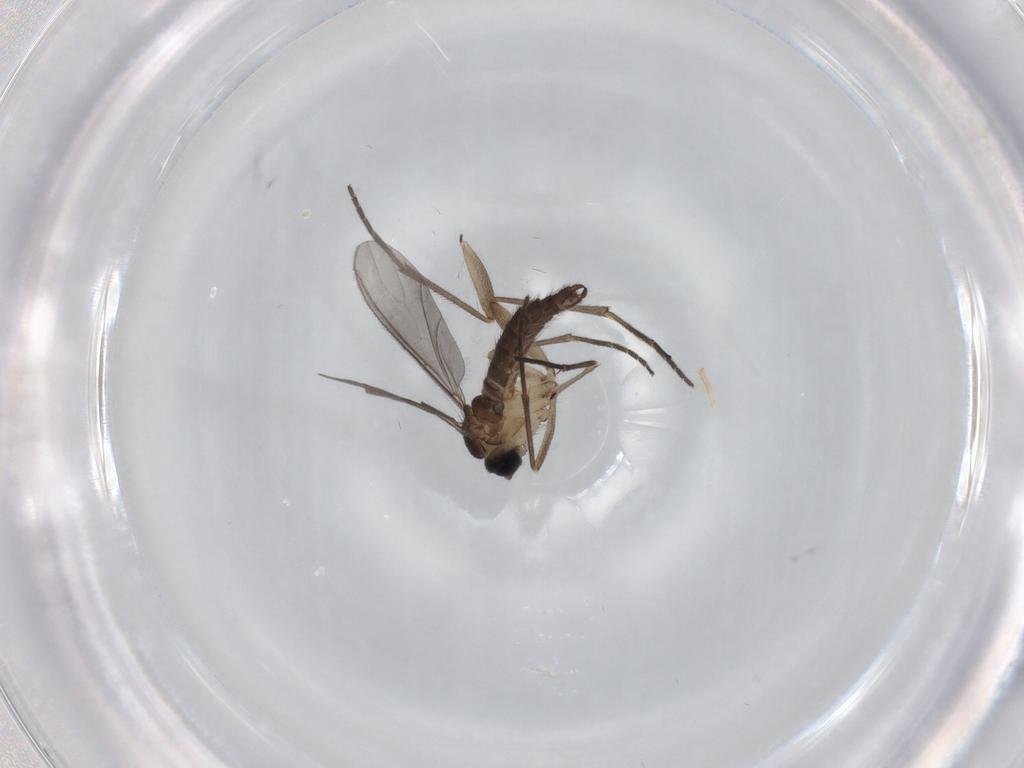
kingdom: Animalia
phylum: Arthropoda
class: Insecta
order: Diptera
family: Sciaridae
